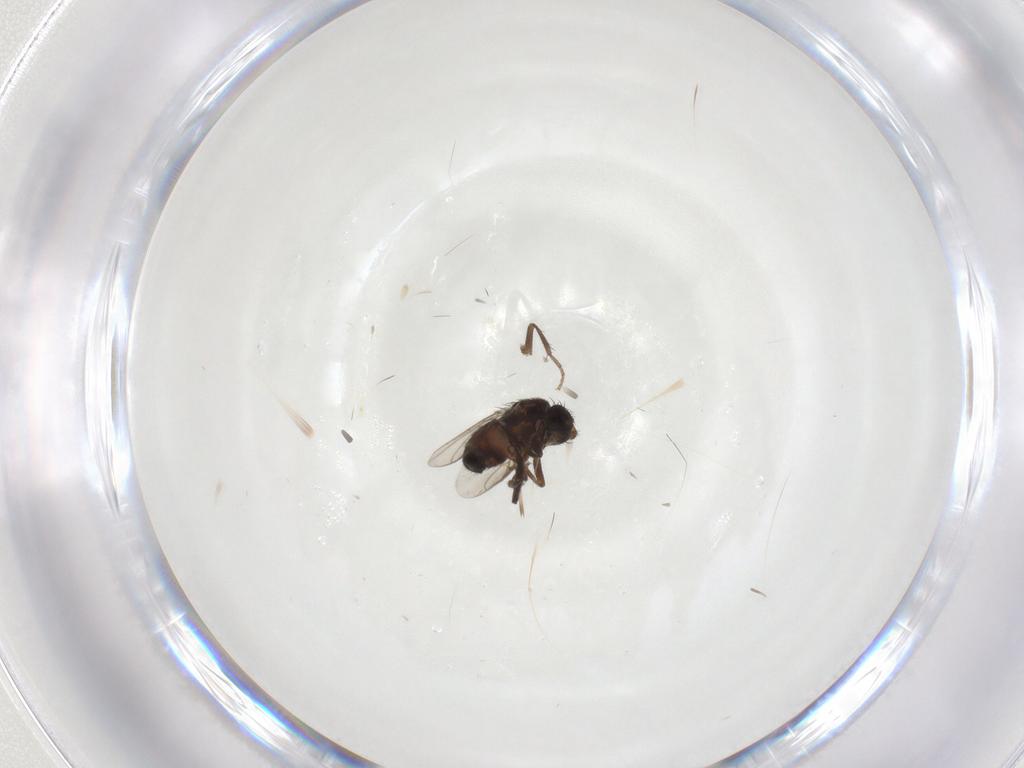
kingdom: Animalia
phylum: Arthropoda
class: Insecta
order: Diptera
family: Sphaeroceridae
